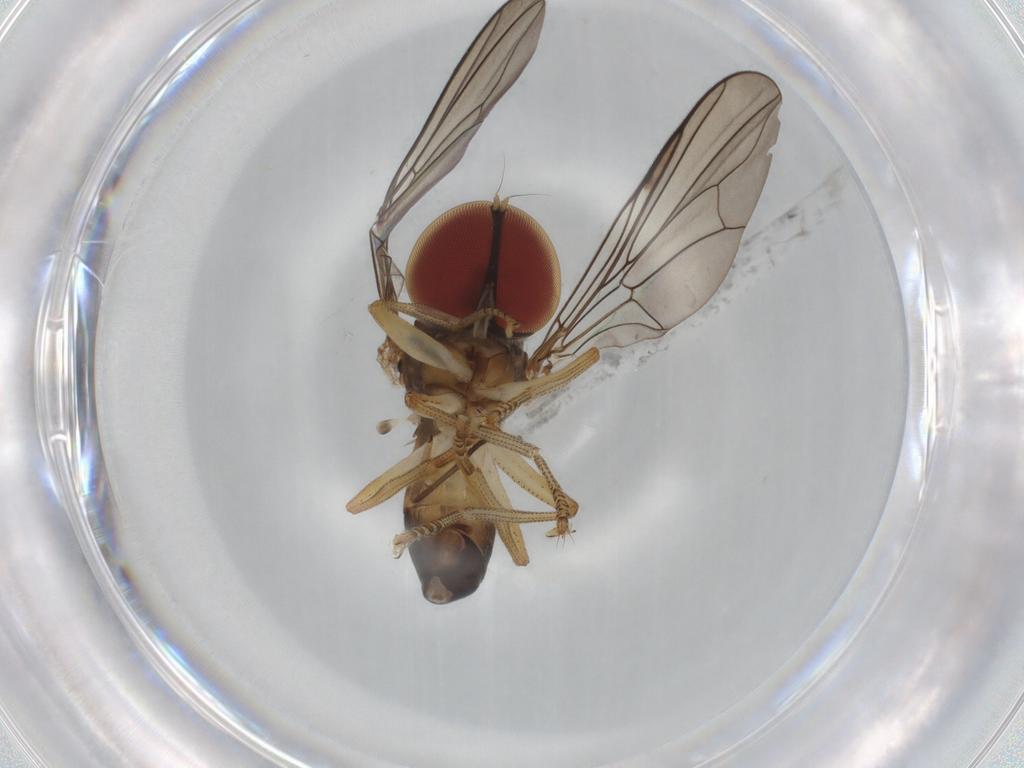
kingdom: Animalia
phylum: Arthropoda
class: Insecta
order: Diptera
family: Pipunculidae
